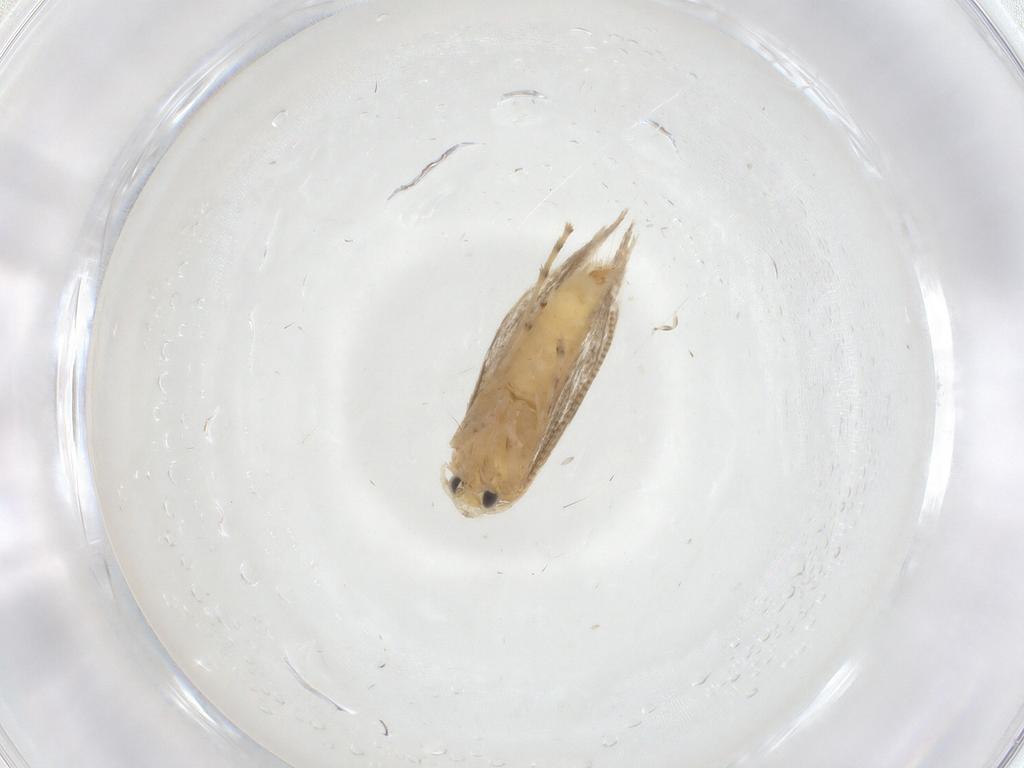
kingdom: Animalia
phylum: Arthropoda
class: Insecta
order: Lepidoptera
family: Gracillariidae
